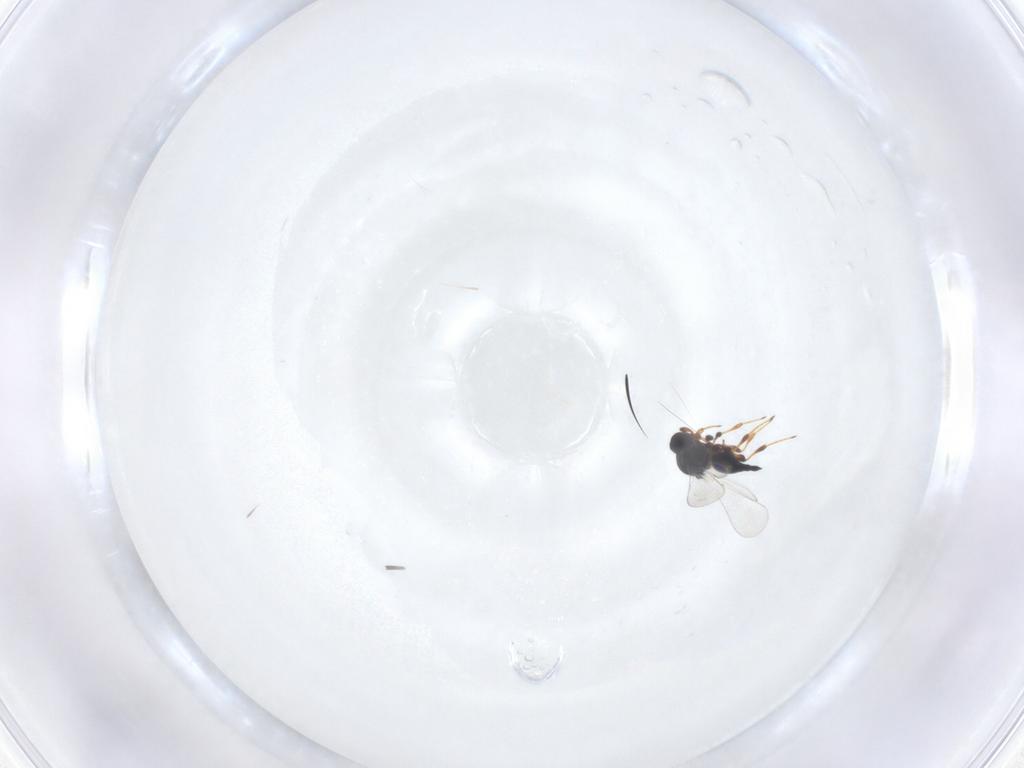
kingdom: Animalia
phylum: Arthropoda
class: Insecta
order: Hymenoptera
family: Platygastridae
